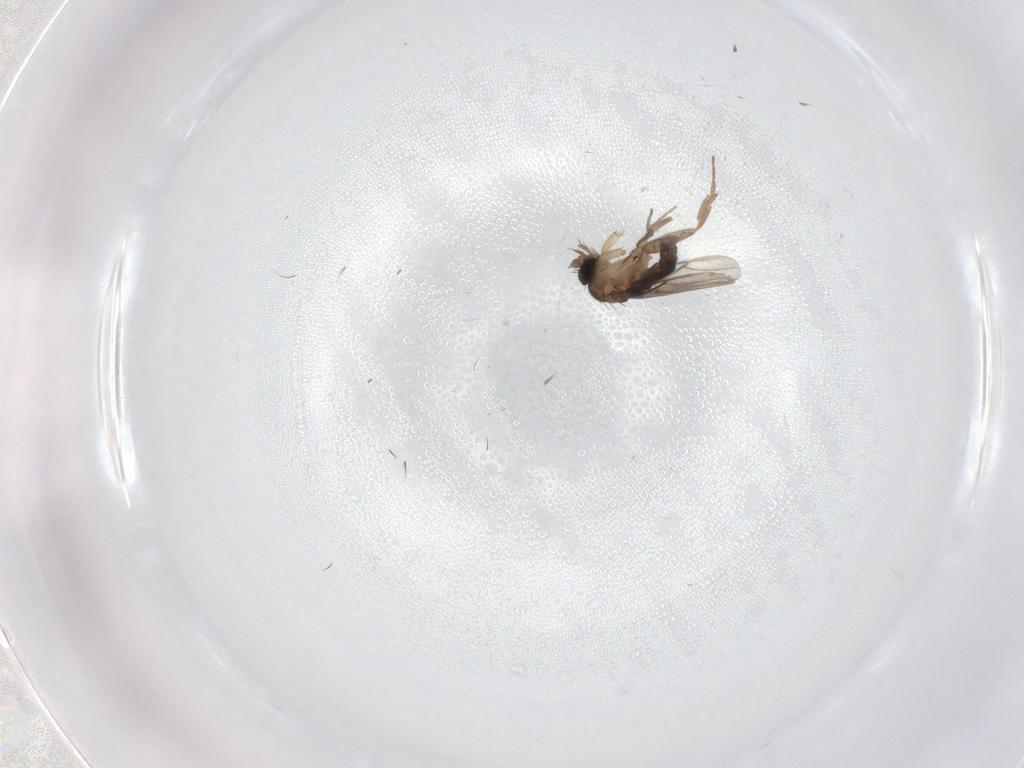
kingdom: Animalia
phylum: Arthropoda
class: Insecta
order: Diptera
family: Phoridae
